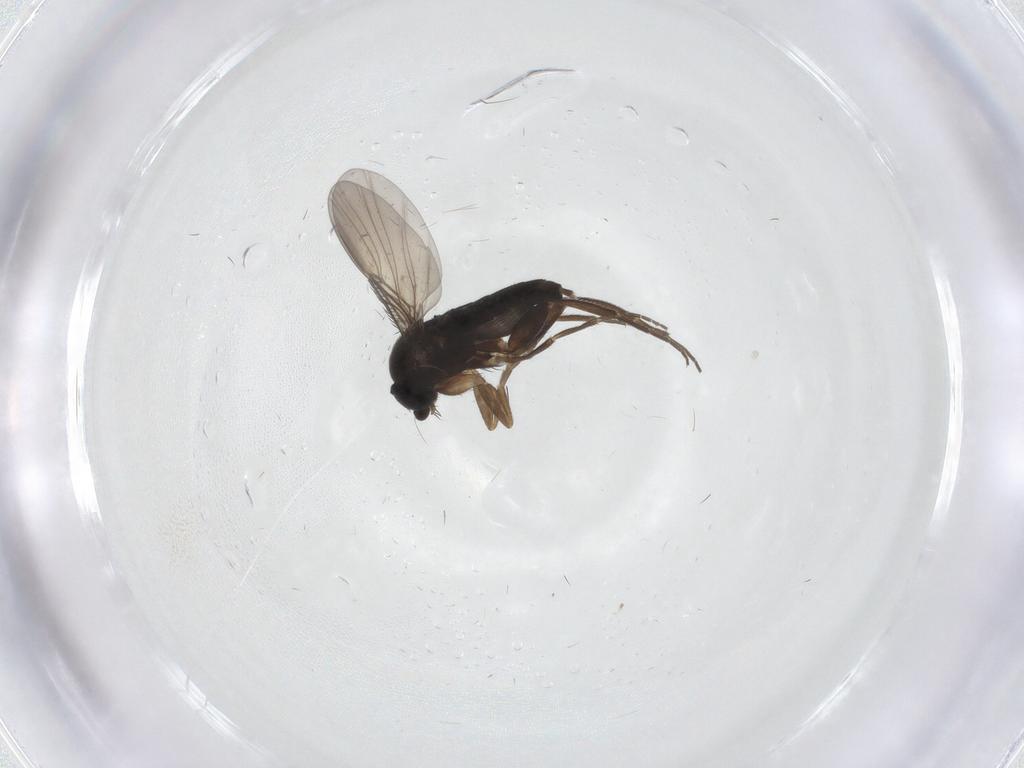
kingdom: Animalia
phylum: Arthropoda
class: Insecta
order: Diptera
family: Phoridae
